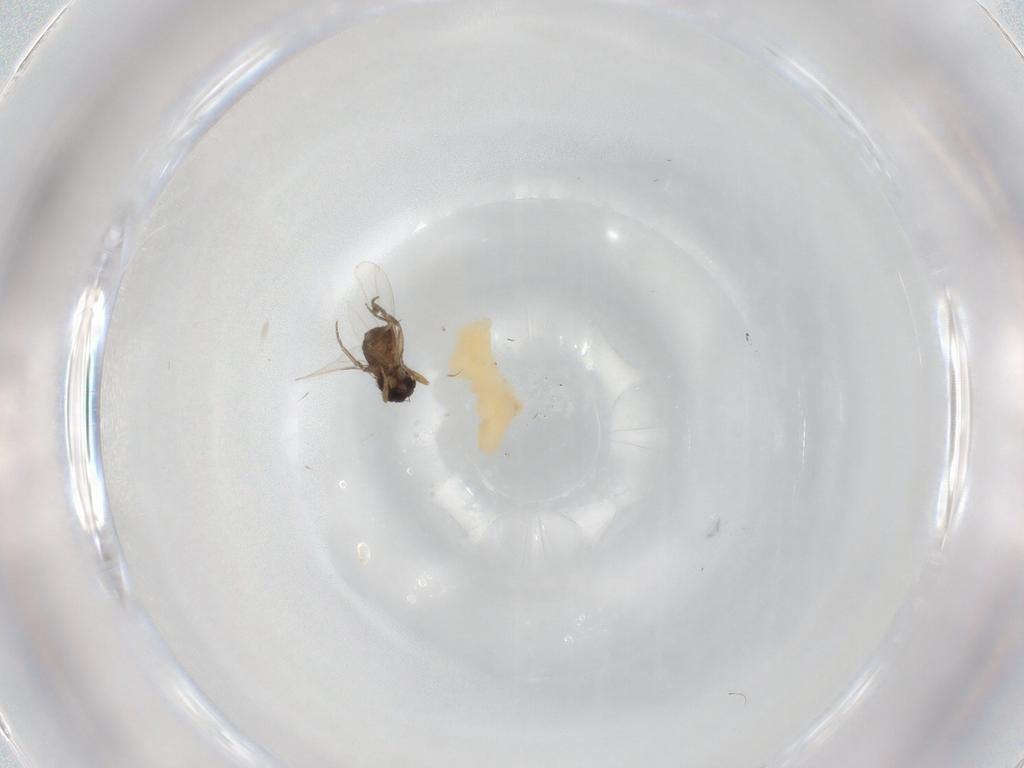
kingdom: Animalia
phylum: Arthropoda
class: Insecta
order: Diptera
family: Phoridae
